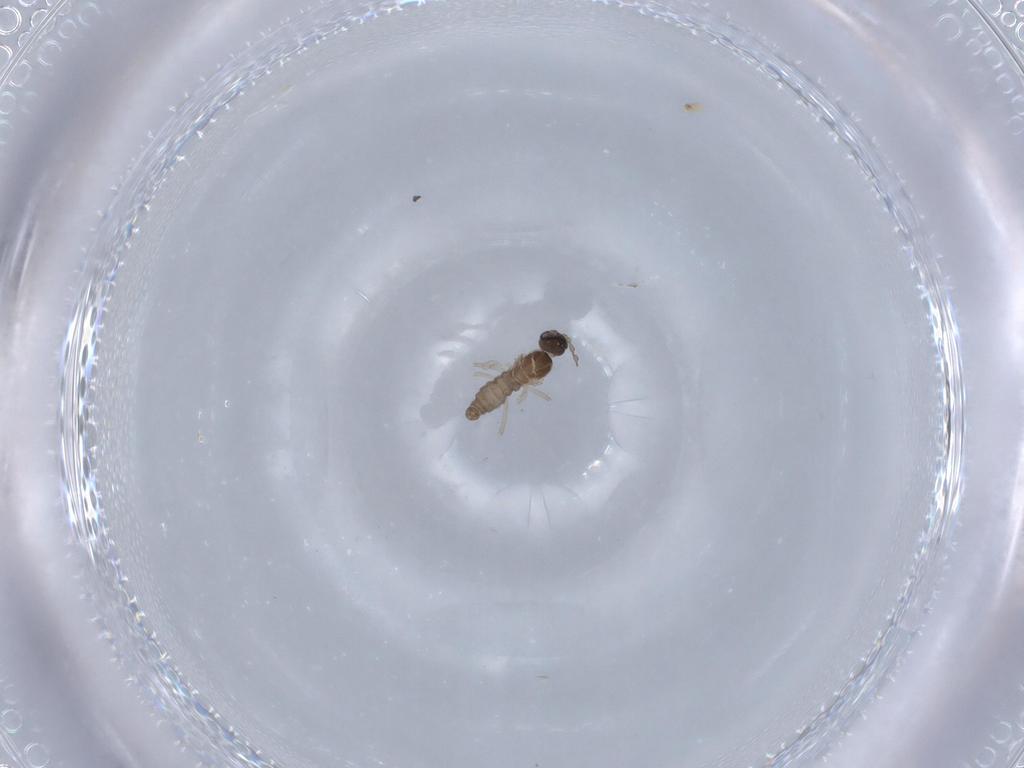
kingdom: Animalia
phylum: Arthropoda
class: Insecta
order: Diptera
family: Cecidomyiidae
